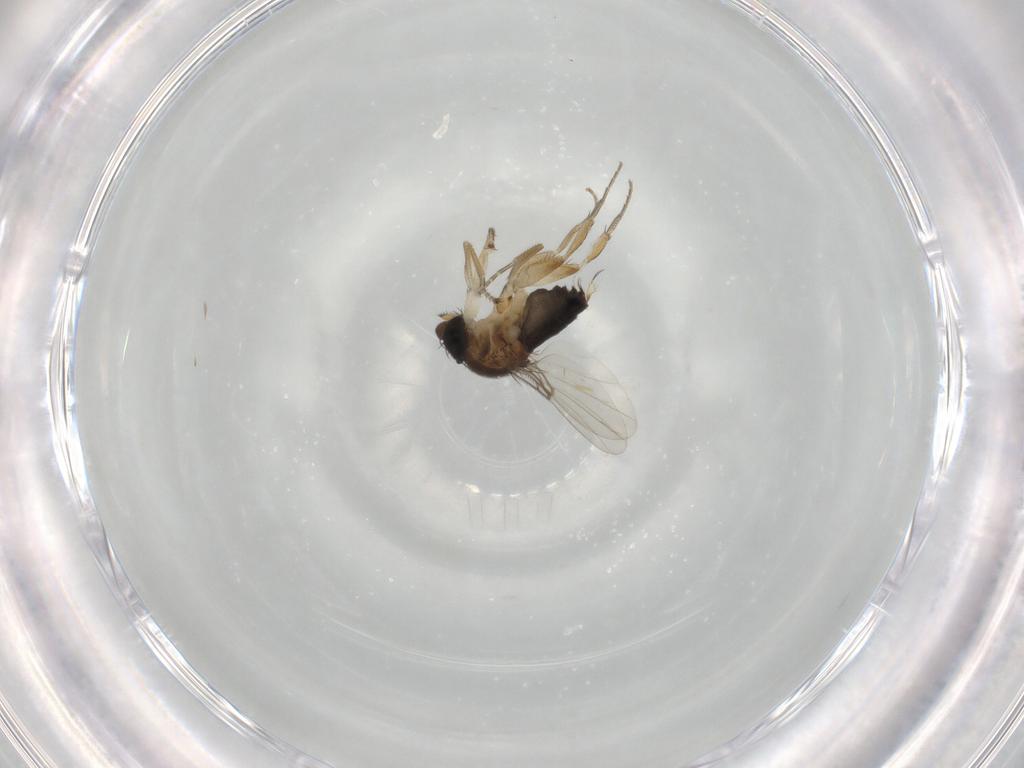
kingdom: Animalia
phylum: Arthropoda
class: Insecta
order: Diptera
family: Phoridae
